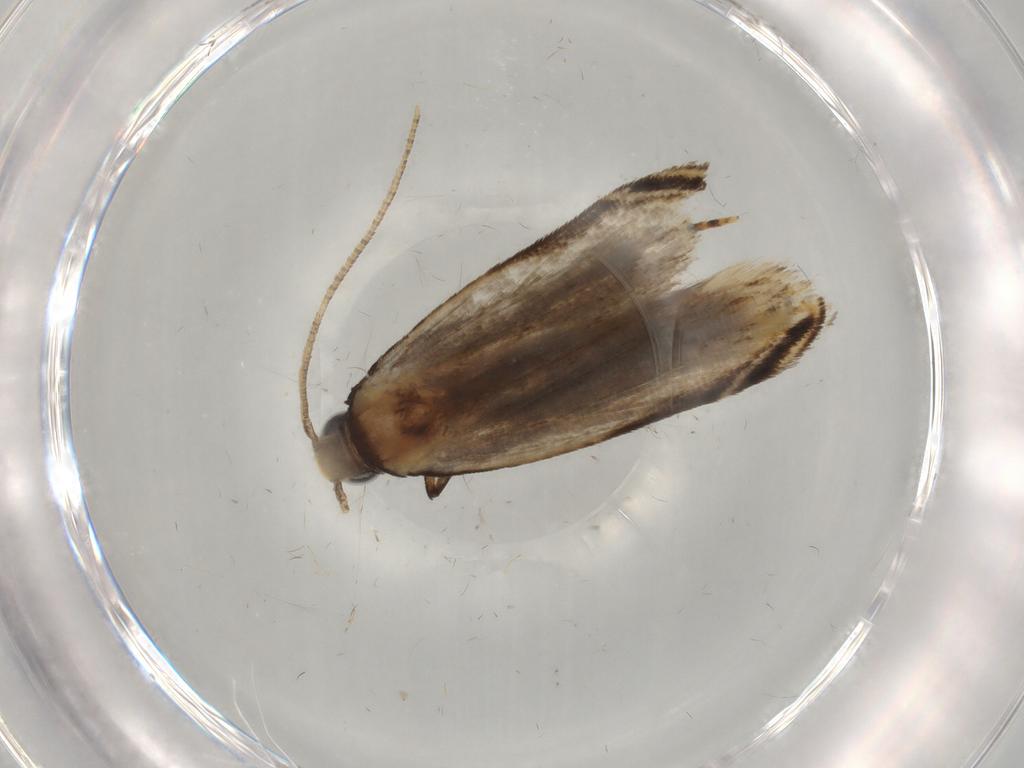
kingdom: Animalia
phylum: Arthropoda
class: Insecta
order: Lepidoptera
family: Gelechiidae
